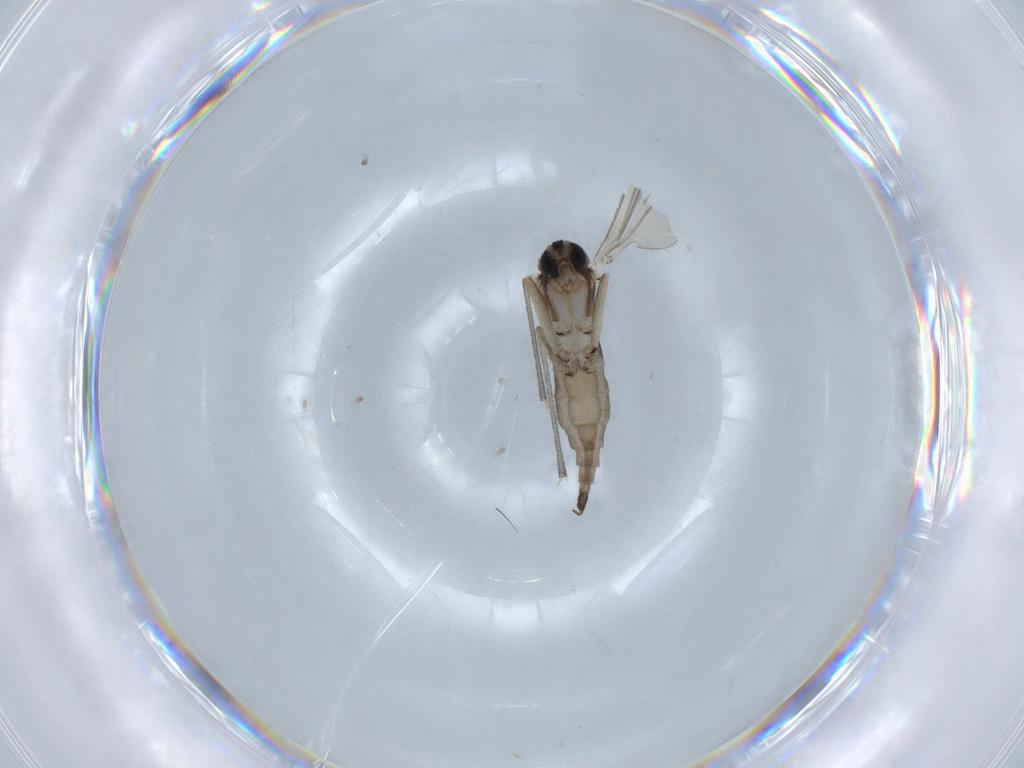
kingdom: Animalia
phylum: Arthropoda
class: Insecta
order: Diptera
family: Sciaridae
